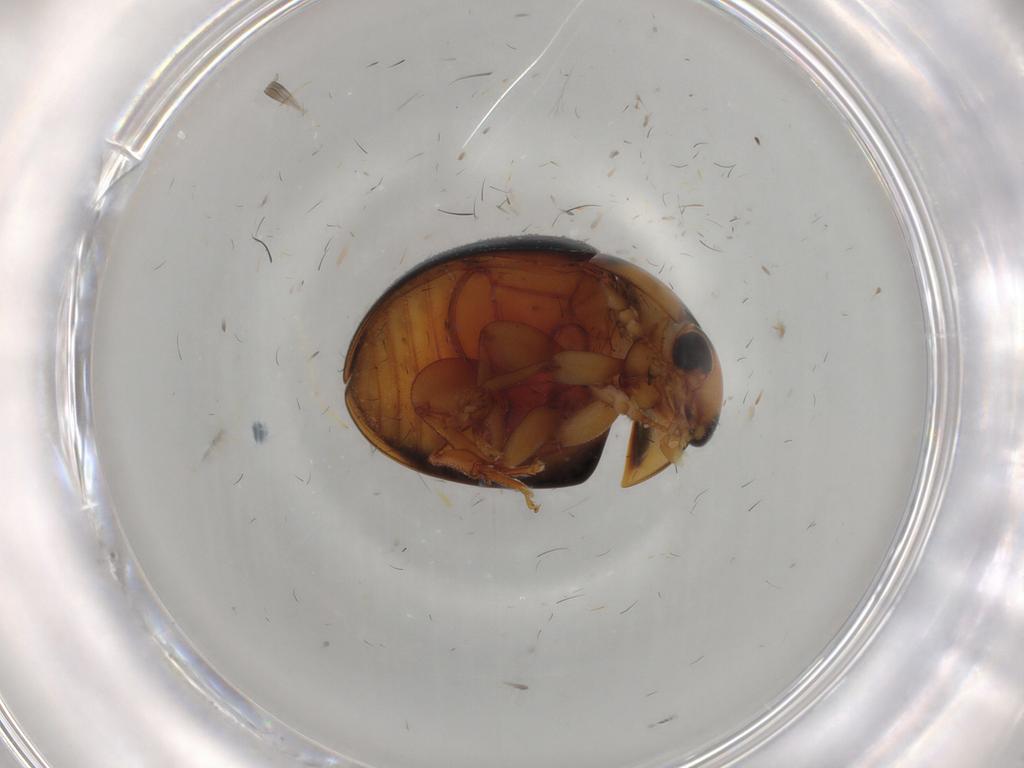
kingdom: Animalia
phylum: Arthropoda
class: Insecta
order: Coleoptera
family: Phalacridae
